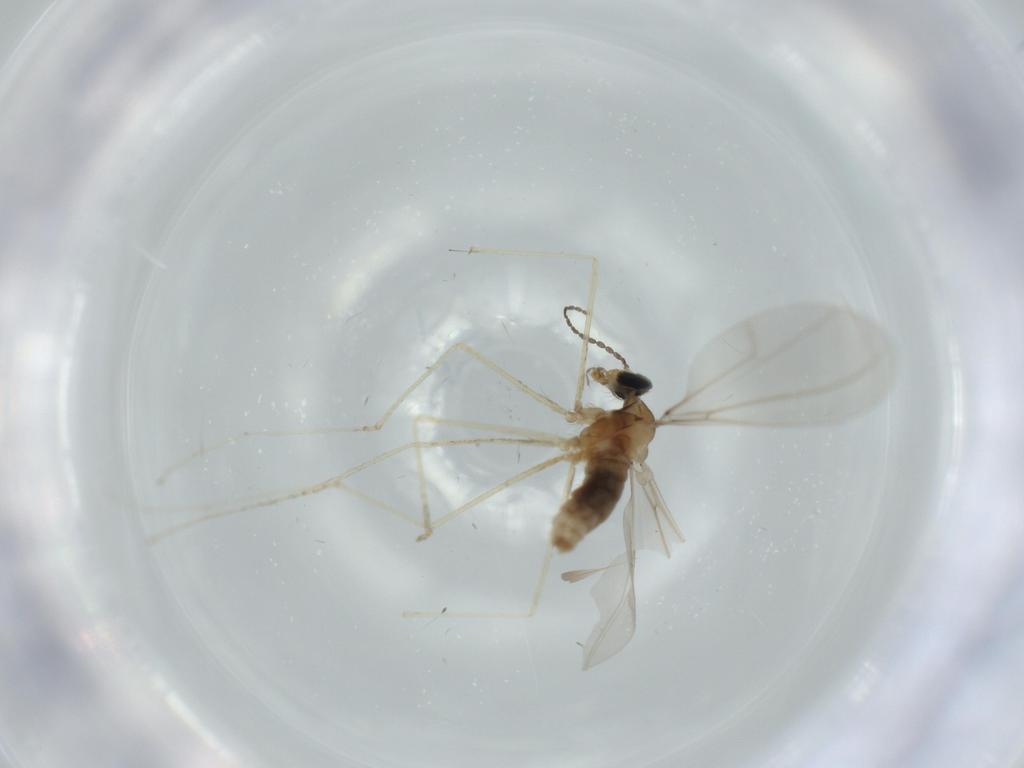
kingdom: Animalia
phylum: Arthropoda
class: Insecta
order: Diptera
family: Cecidomyiidae
